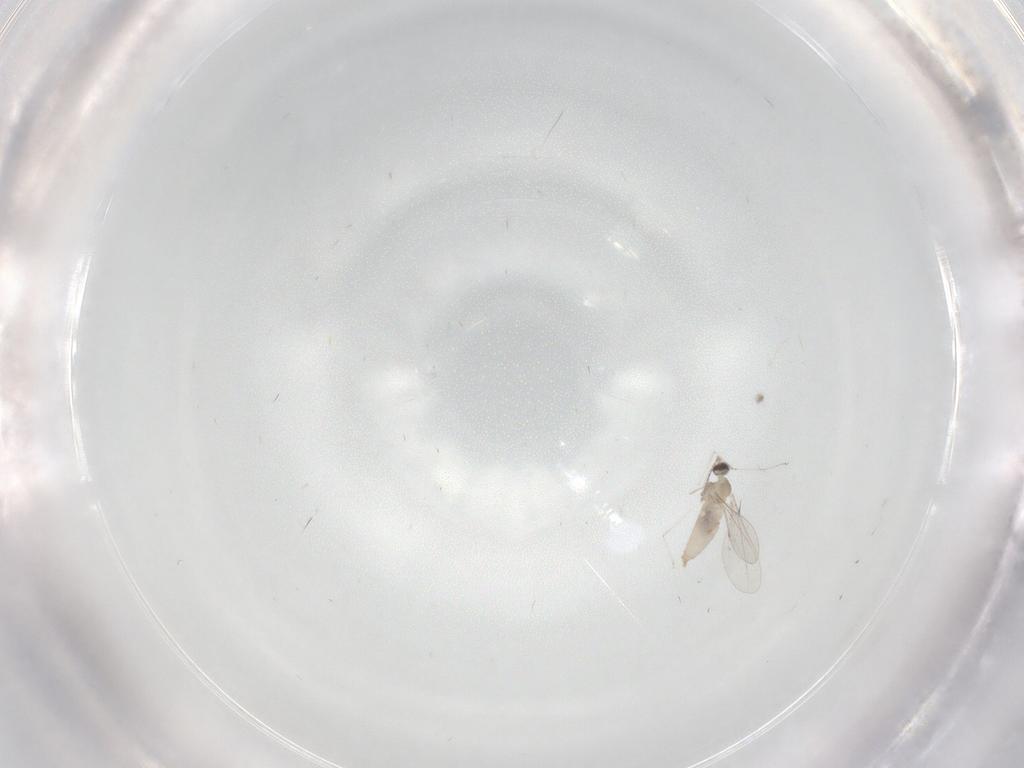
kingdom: Animalia
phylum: Arthropoda
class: Insecta
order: Diptera
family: Cecidomyiidae
